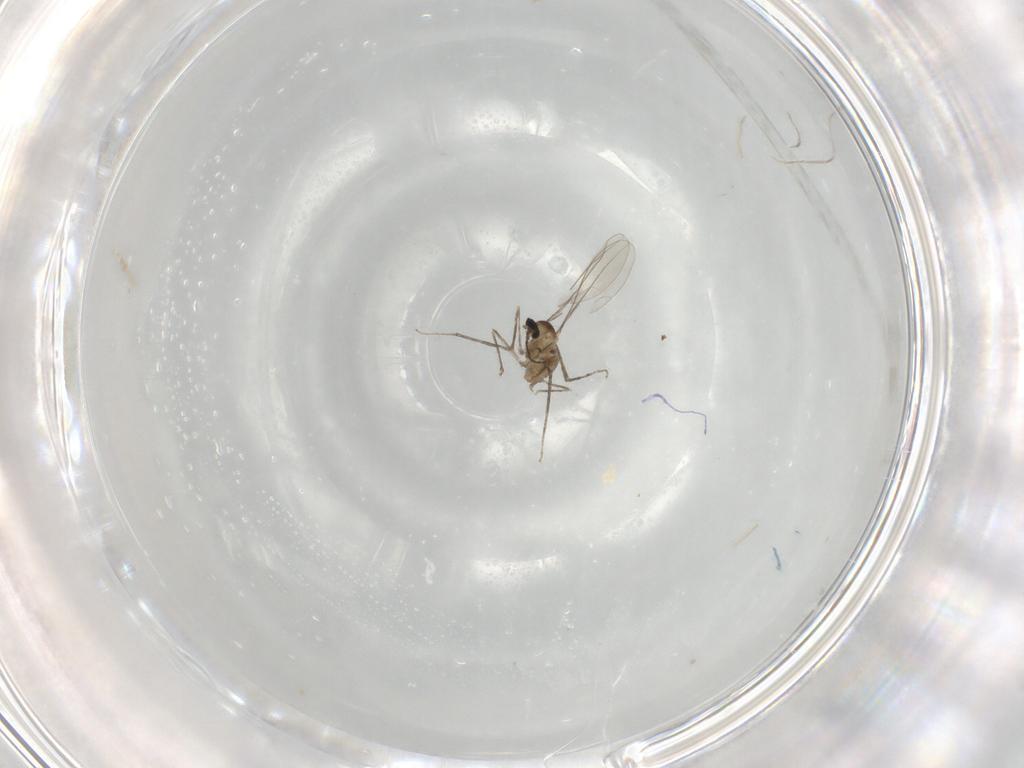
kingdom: Animalia
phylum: Arthropoda
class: Insecta
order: Diptera
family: Cecidomyiidae
